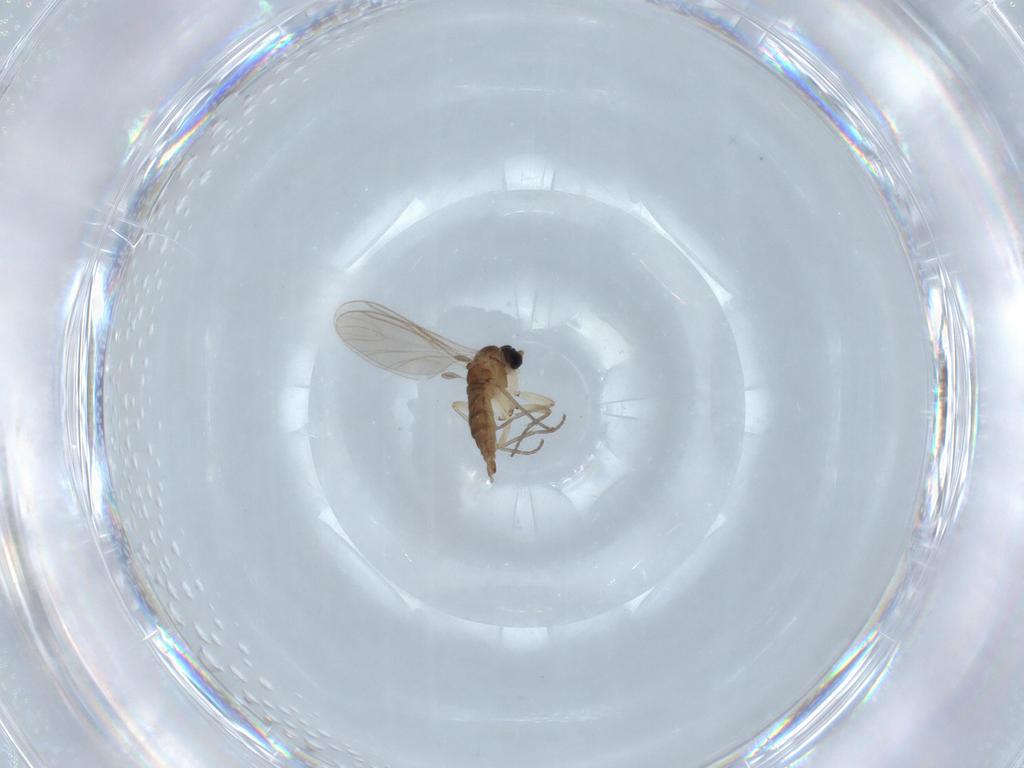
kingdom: Animalia
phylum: Arthropoda
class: Insecta
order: Diptera
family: Sciaridae
